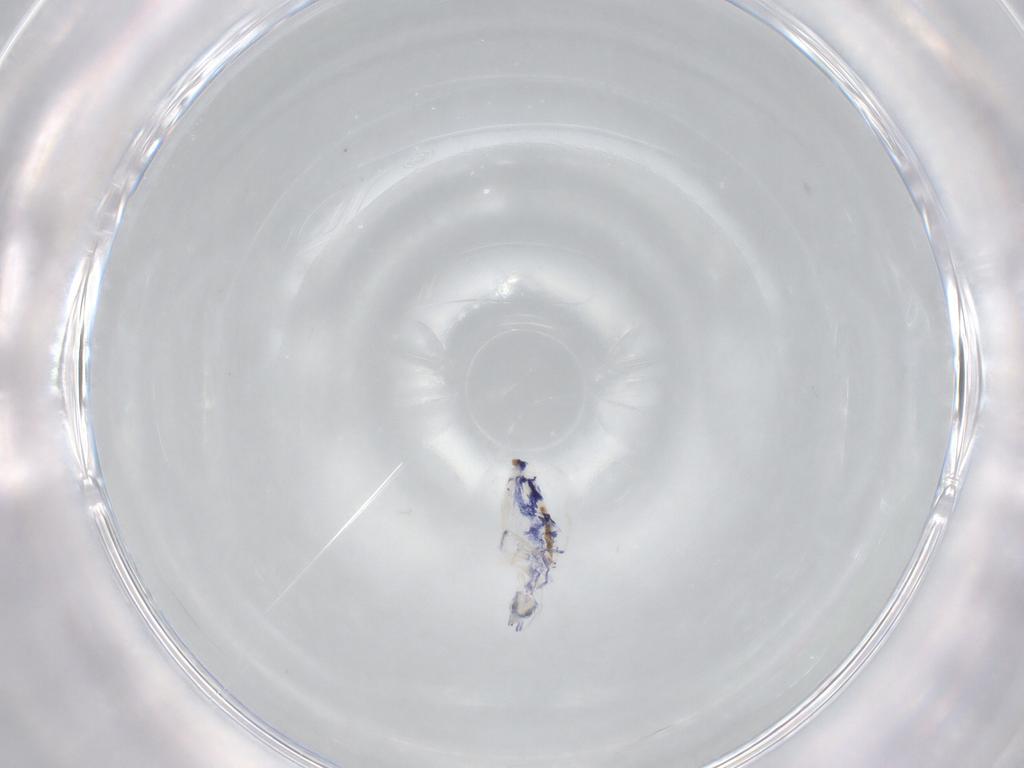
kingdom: Animalia
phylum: Arthropoda
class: Collembola
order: Entomobryomorpha
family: Entomobryidae
